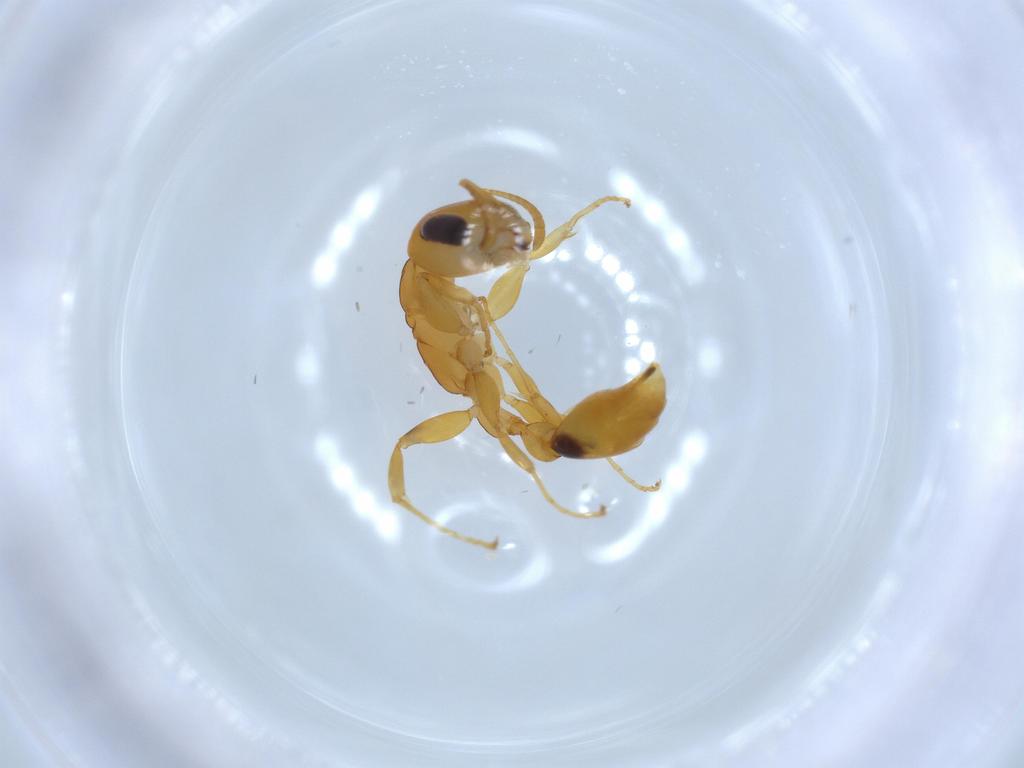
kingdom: Animalia
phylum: Arthropoda
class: Insecta
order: Hymenoptera
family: Formicidae
